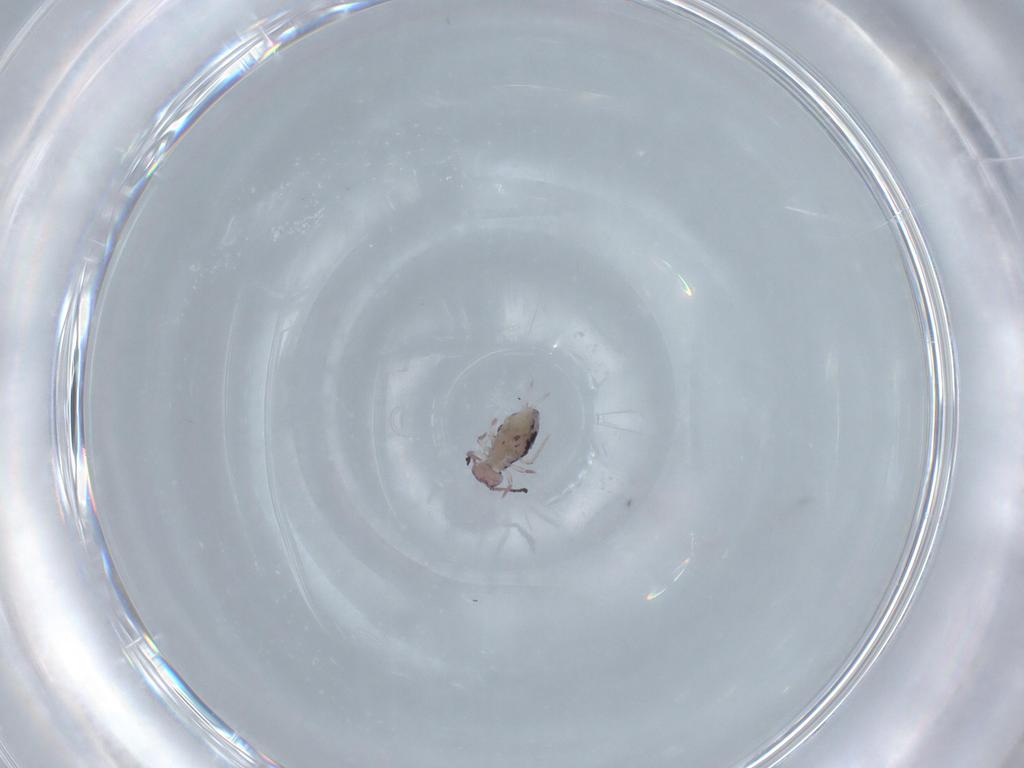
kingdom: Animalia
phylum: Arthropoda
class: Collembola
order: Symphypleona
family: Dicyrtomidae
